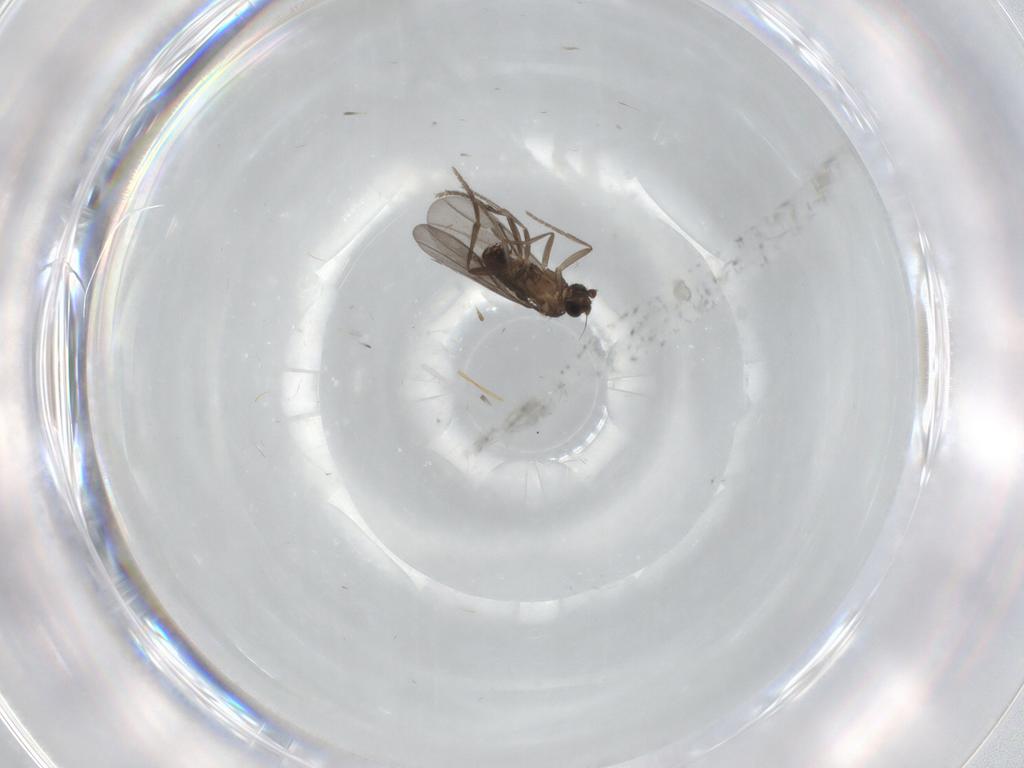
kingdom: Animalia
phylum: Arthropoda
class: Insecta
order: Diptera
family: Phoridae
